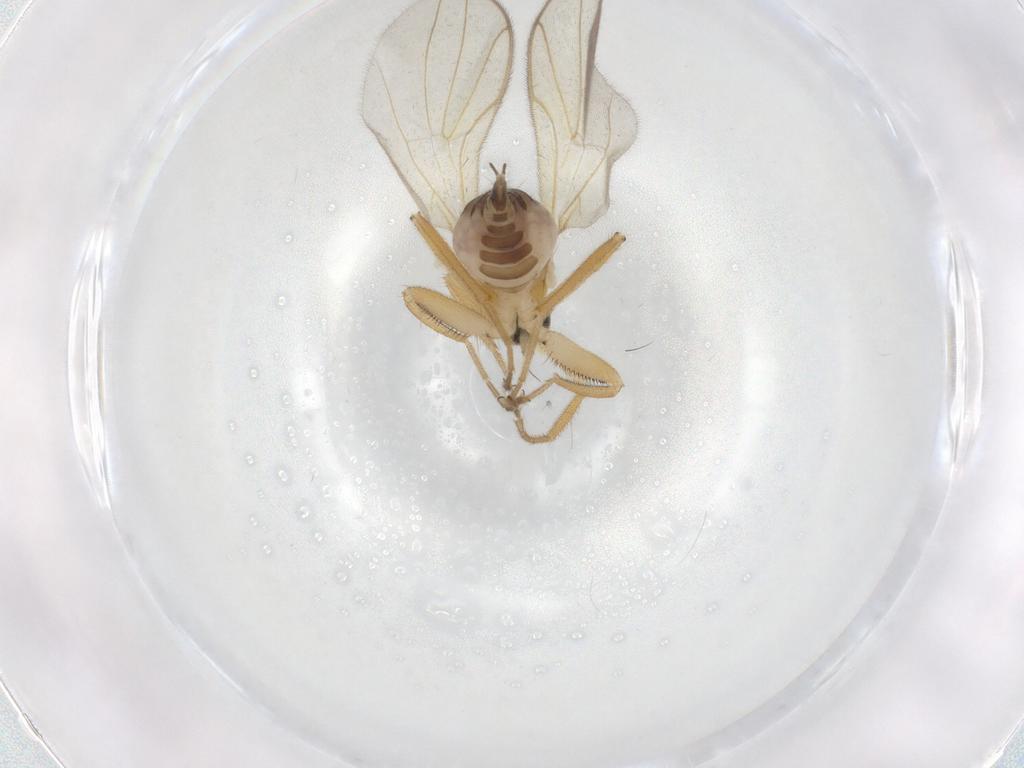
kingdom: Animalia
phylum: Arthropoda
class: Insecta
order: Diptera
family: Hybotidae
